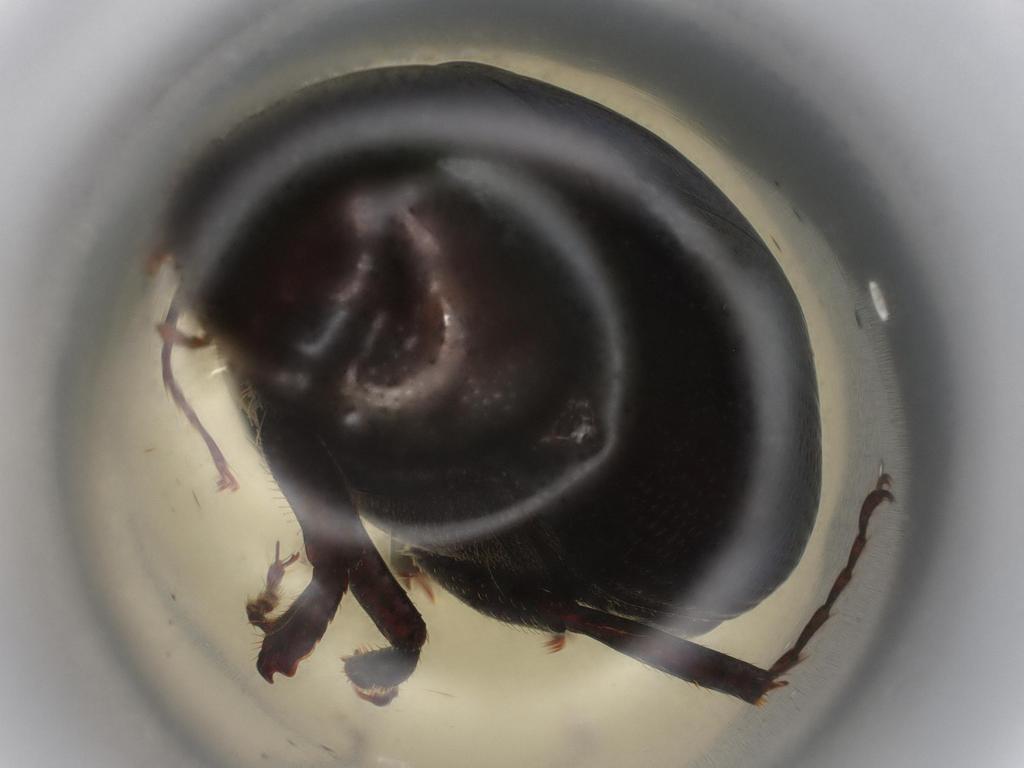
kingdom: Animalia
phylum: Arthropoda
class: Insecta
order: Coleoptera
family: Scarabaeidae
